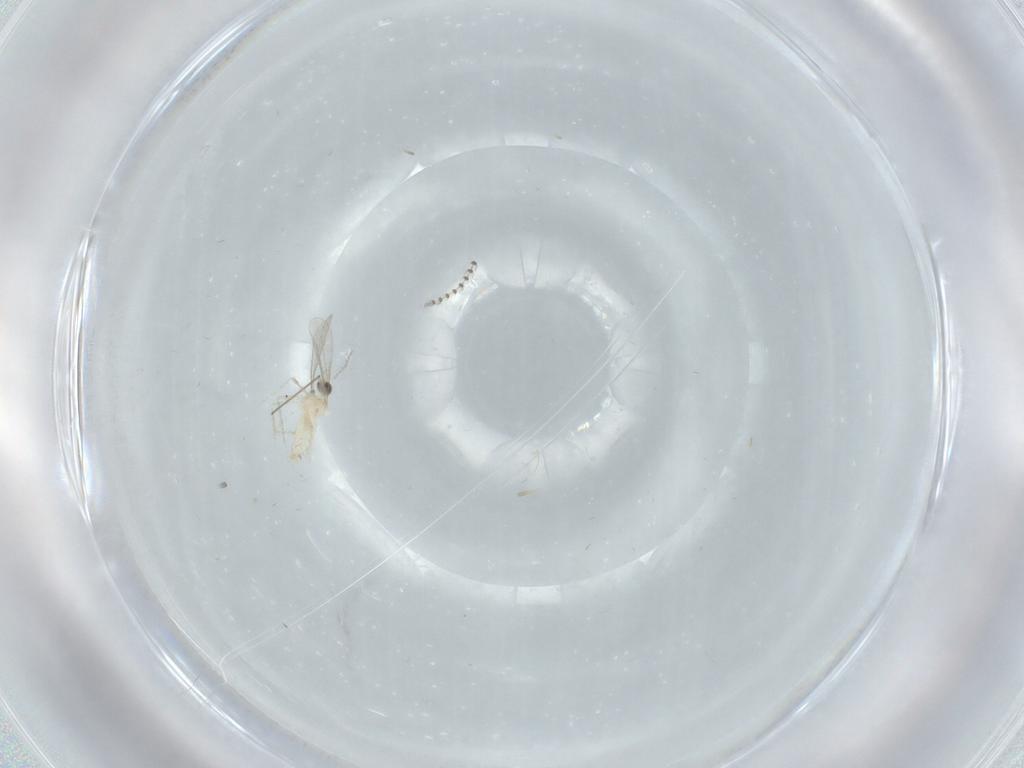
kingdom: Animalia
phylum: Arthropoda
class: Insecta
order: Diptera
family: Cecidomyiidae
